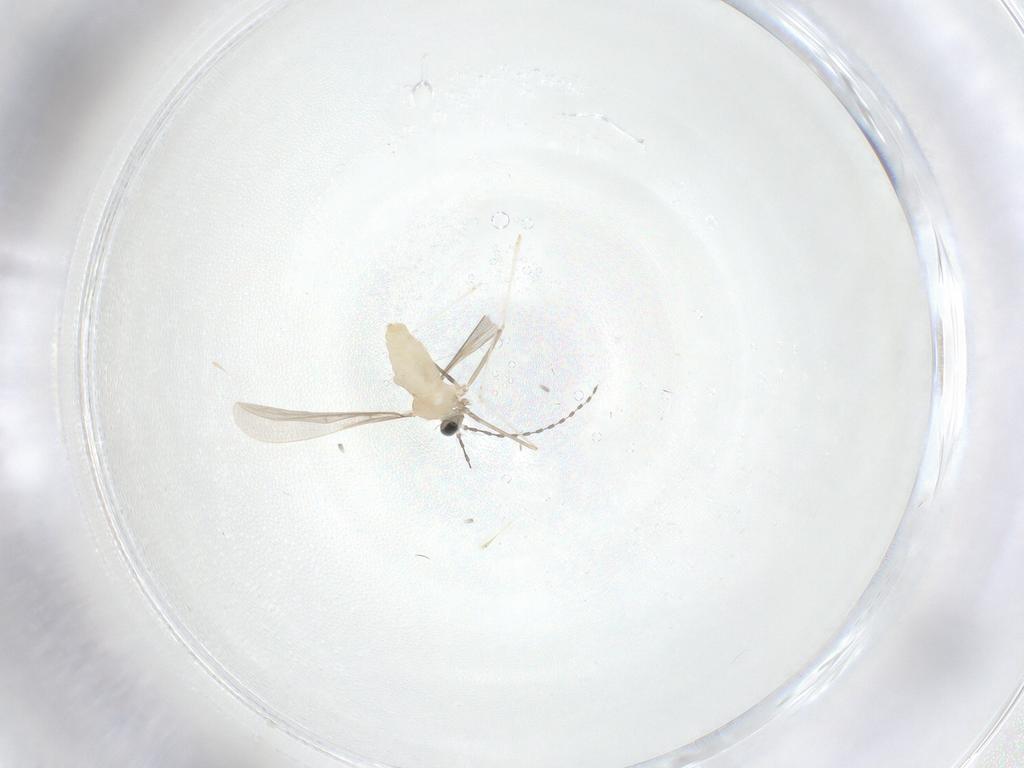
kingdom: Animalia
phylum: Arthropoda
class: Insecta
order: Diptera
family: Cecidomyiidae
